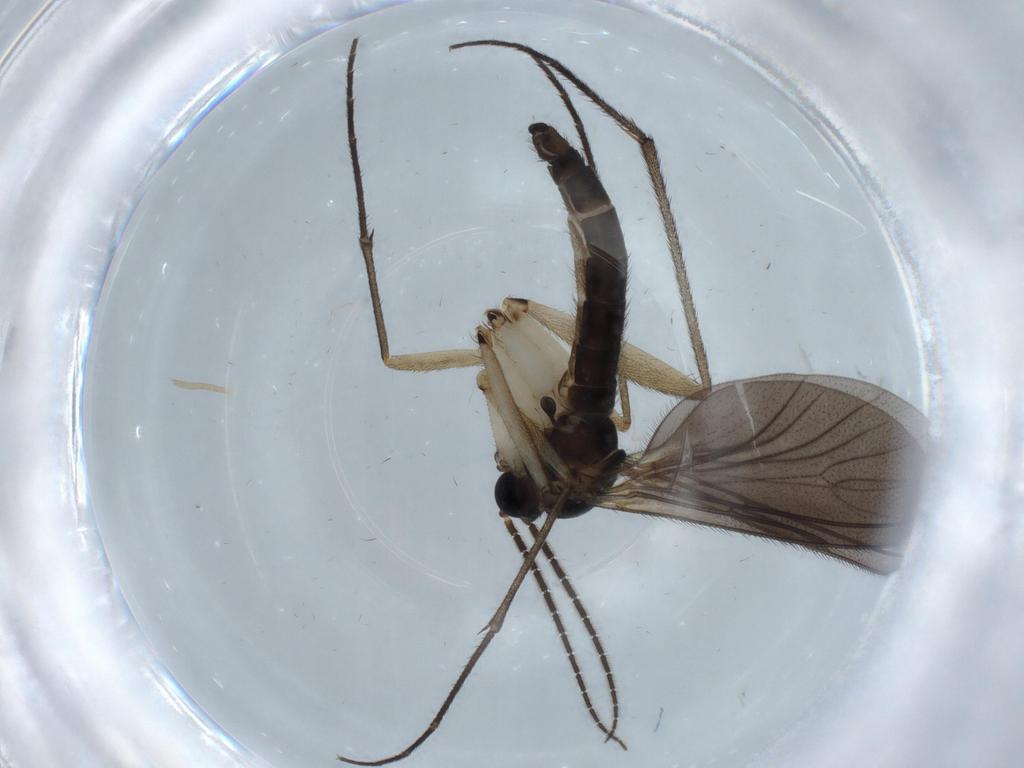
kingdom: Animalia
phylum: Arthropoda
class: Insecta
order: Diptera
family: Sciaridae
